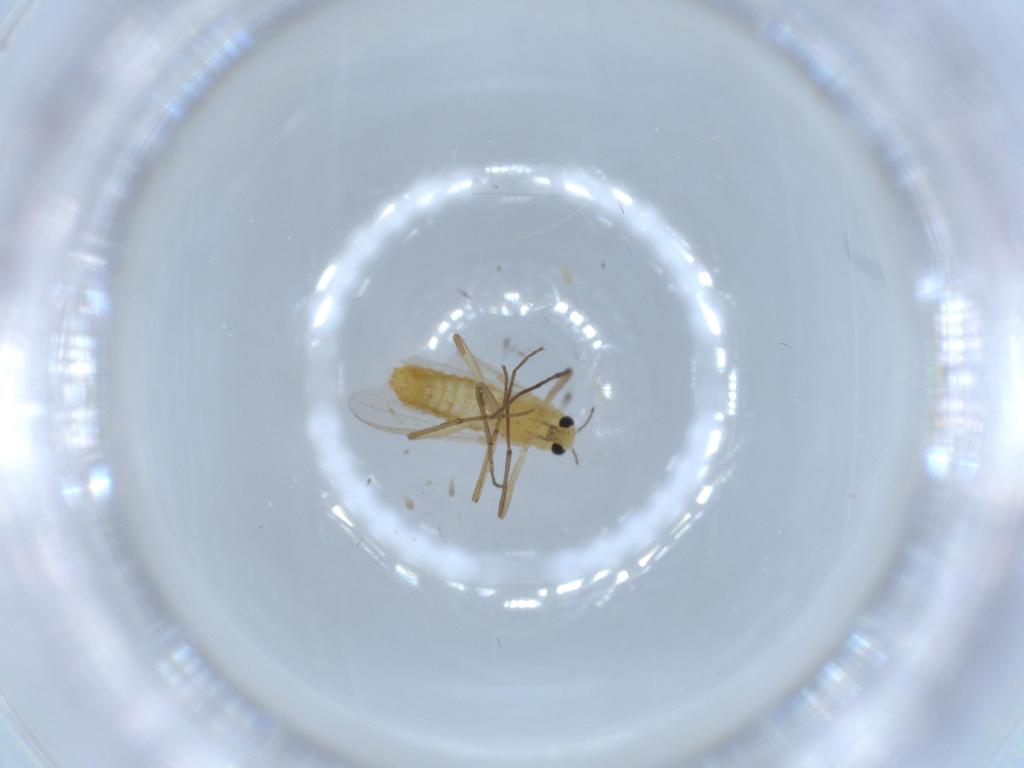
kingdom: Animalia
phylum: Arthropoda
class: Insecta
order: Diptera
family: Chironomidae
